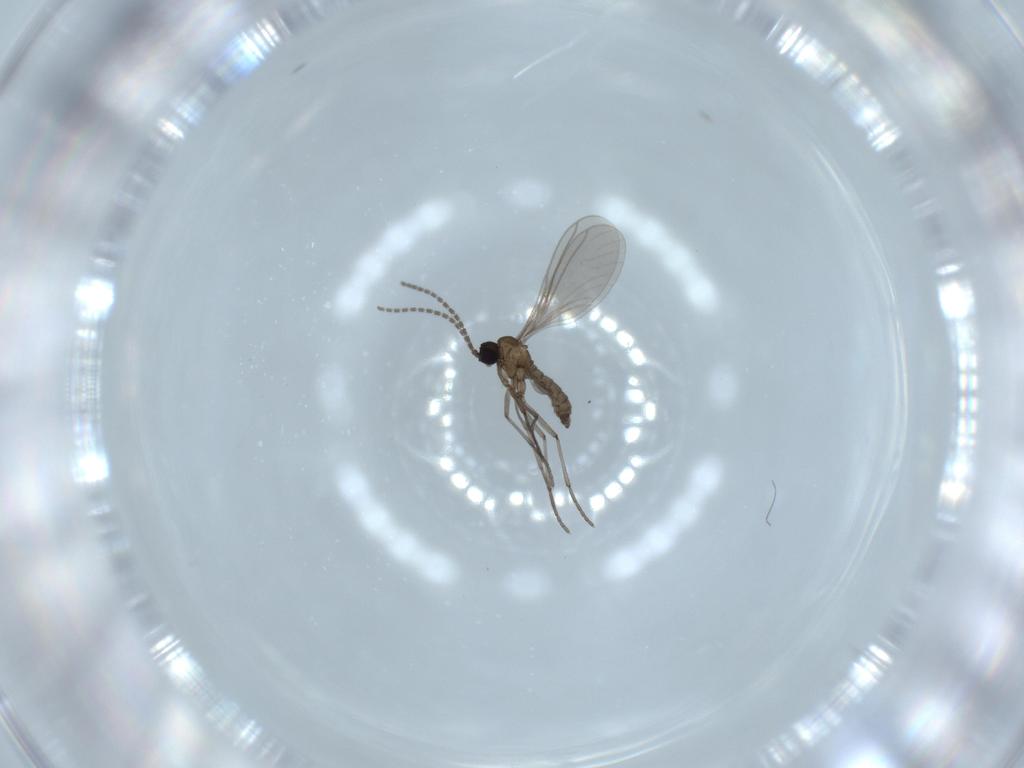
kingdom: Animalia
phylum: Arthropoda
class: Insecta
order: Diptera
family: Sciaridae
